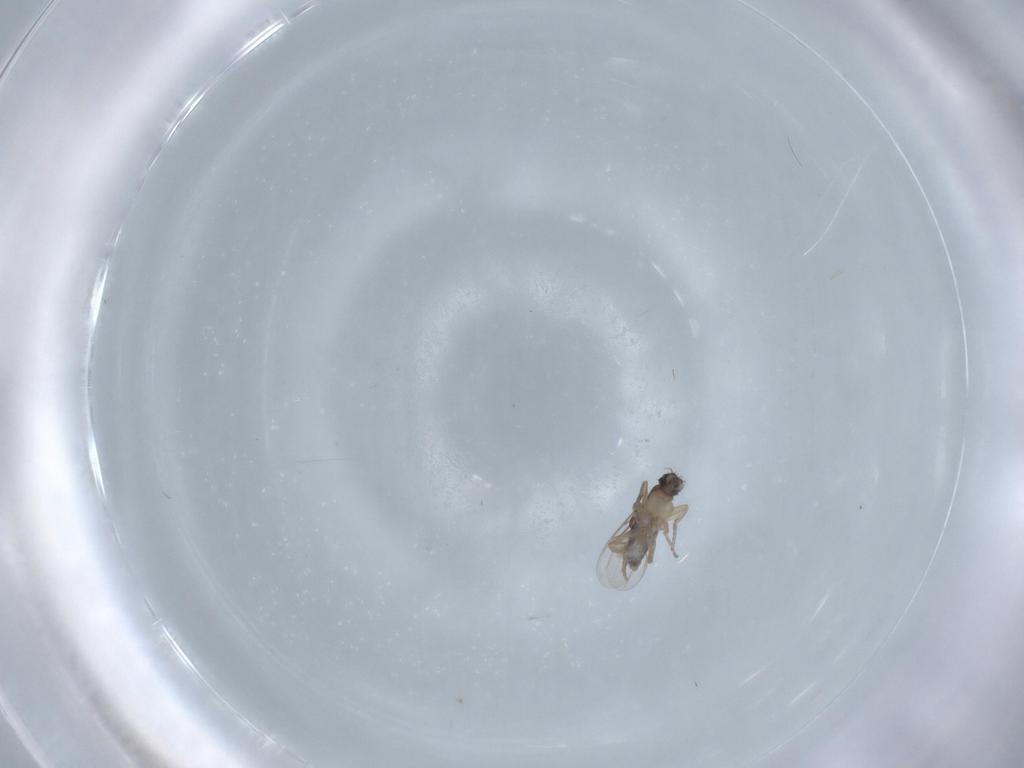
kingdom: Animalia
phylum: Arthropoda
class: Insecta
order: Diptera
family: Phoridae
